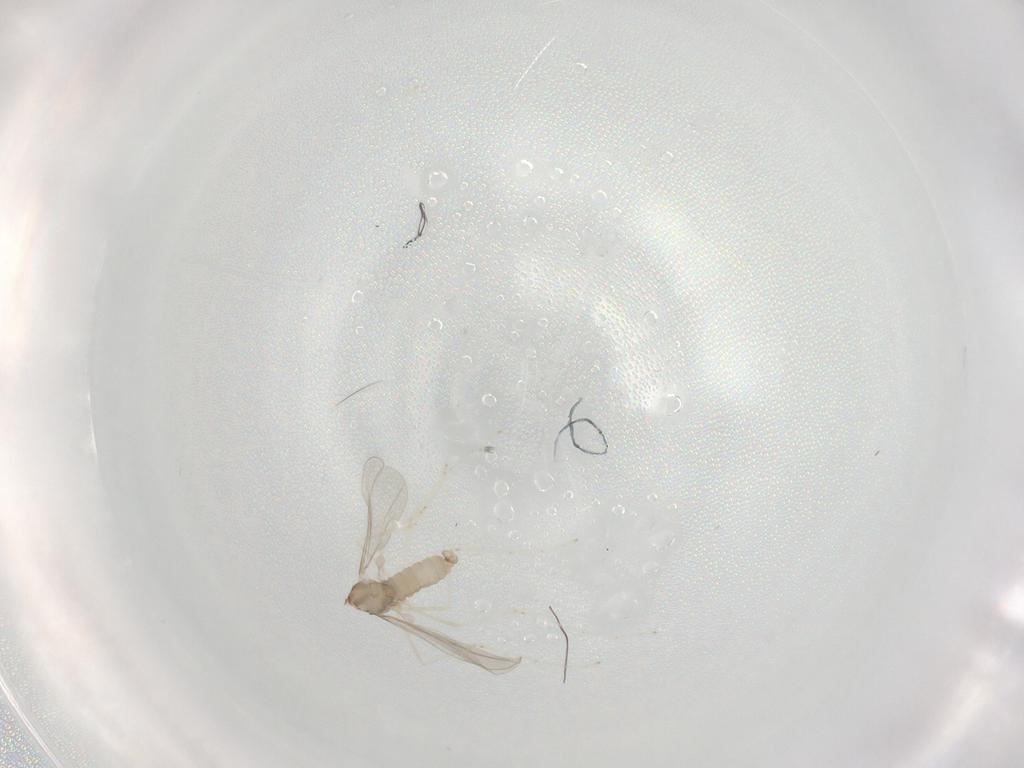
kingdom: Animalia
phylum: Arthropoda
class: Insecta
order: Diptera
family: Cecidomyiidae
